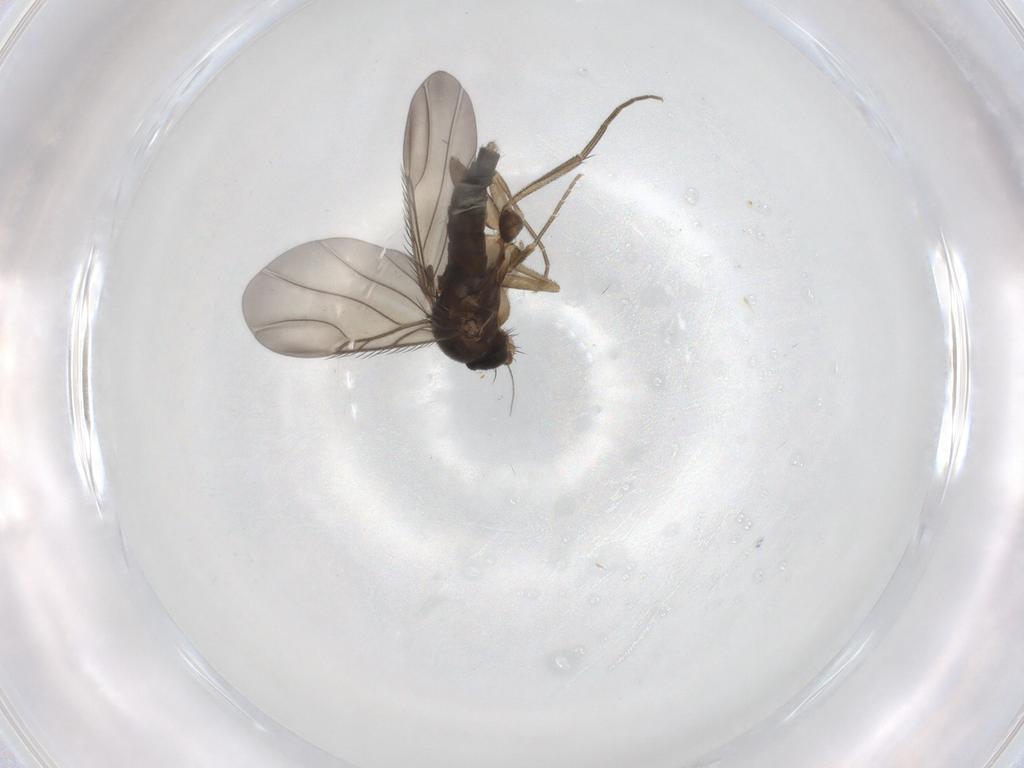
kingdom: Animalia
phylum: Arthropoda
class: Insecta
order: Diptera
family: Phoridae
